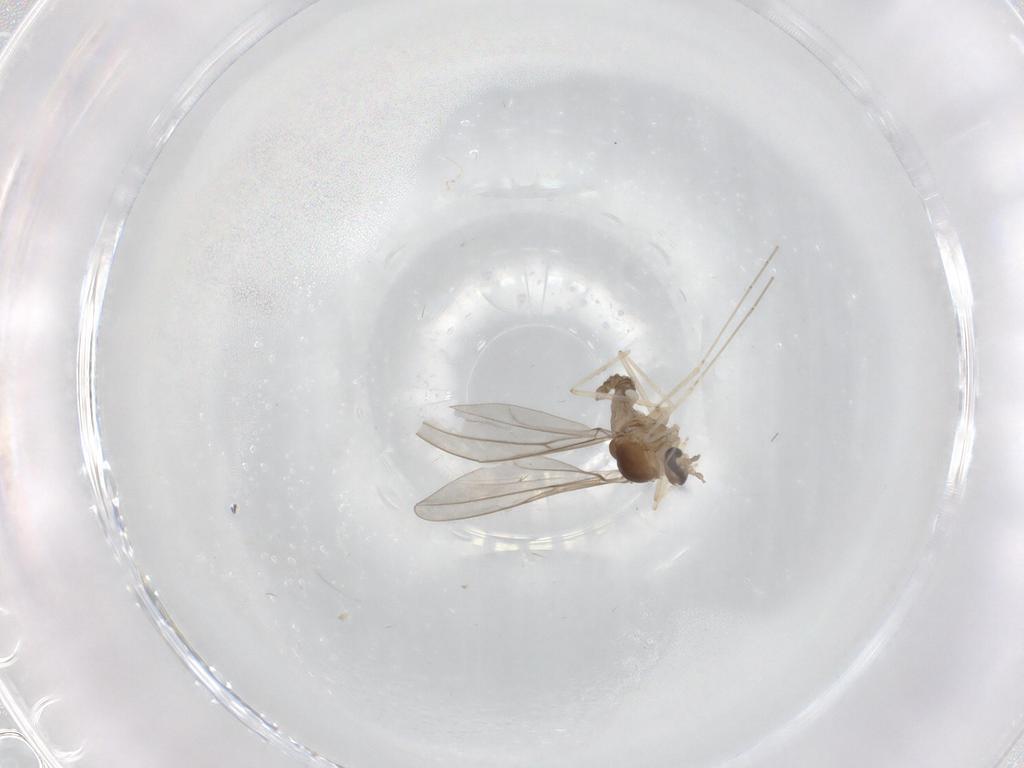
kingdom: Animalia
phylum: Arthropoda
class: Insecta
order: Diptera
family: Cecidomyiidae
